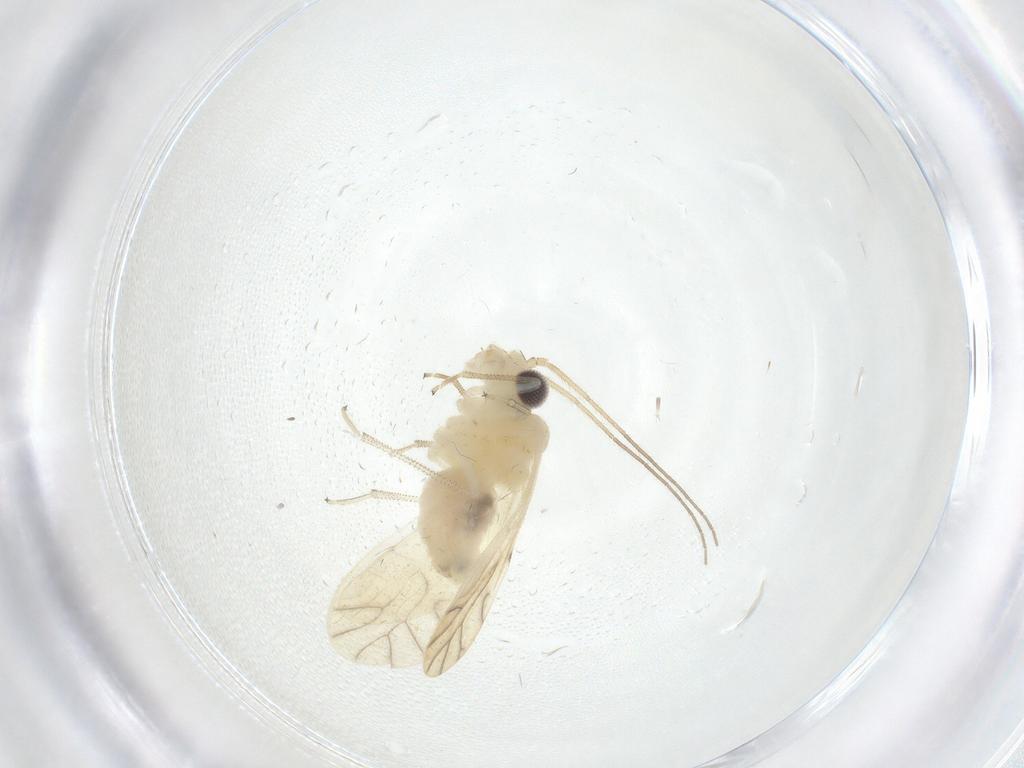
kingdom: Animalia
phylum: Arthropoda
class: Insecta
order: Psocodea
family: Caeciliusidae
